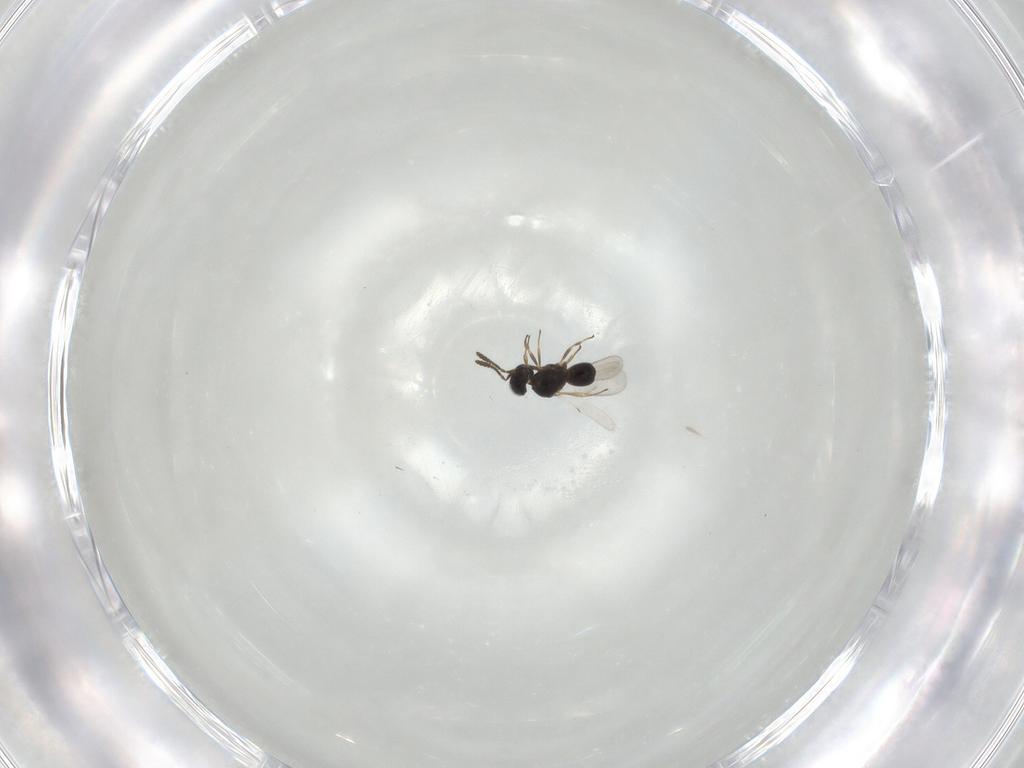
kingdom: Animalia
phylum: Arthropoda
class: Insecta
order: Hymenoptera
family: Scelionidae
